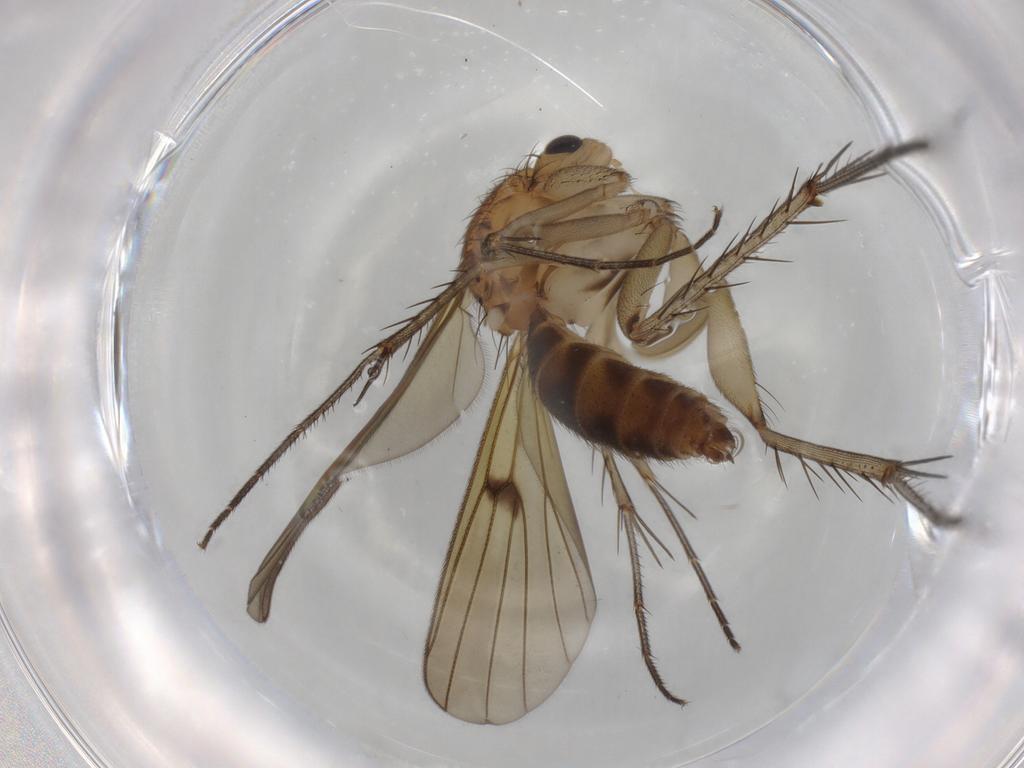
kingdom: Animalia
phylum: Arthropoda
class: Insecta
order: Diptera
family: Mycetophilidae
